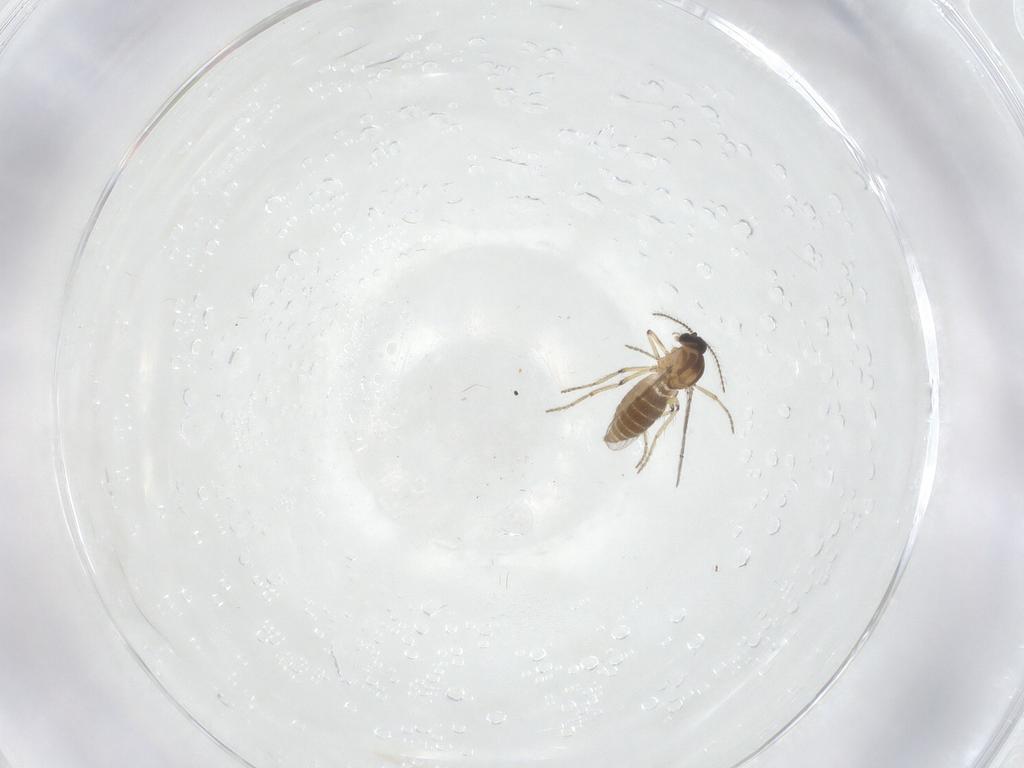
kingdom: Animalia
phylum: Arthropoda
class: Insecta
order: Diptera
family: Ceratopogonidae
